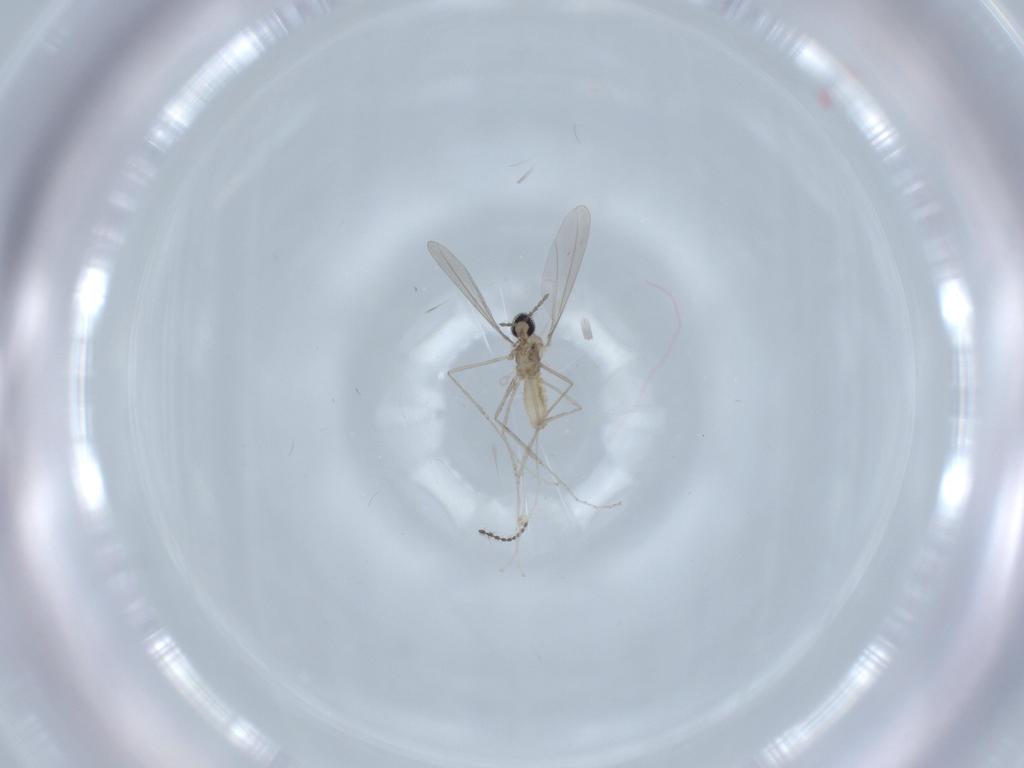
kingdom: Animalia
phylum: Arthropoda
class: Insecta
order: Diptera
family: Cecidomyiidae
